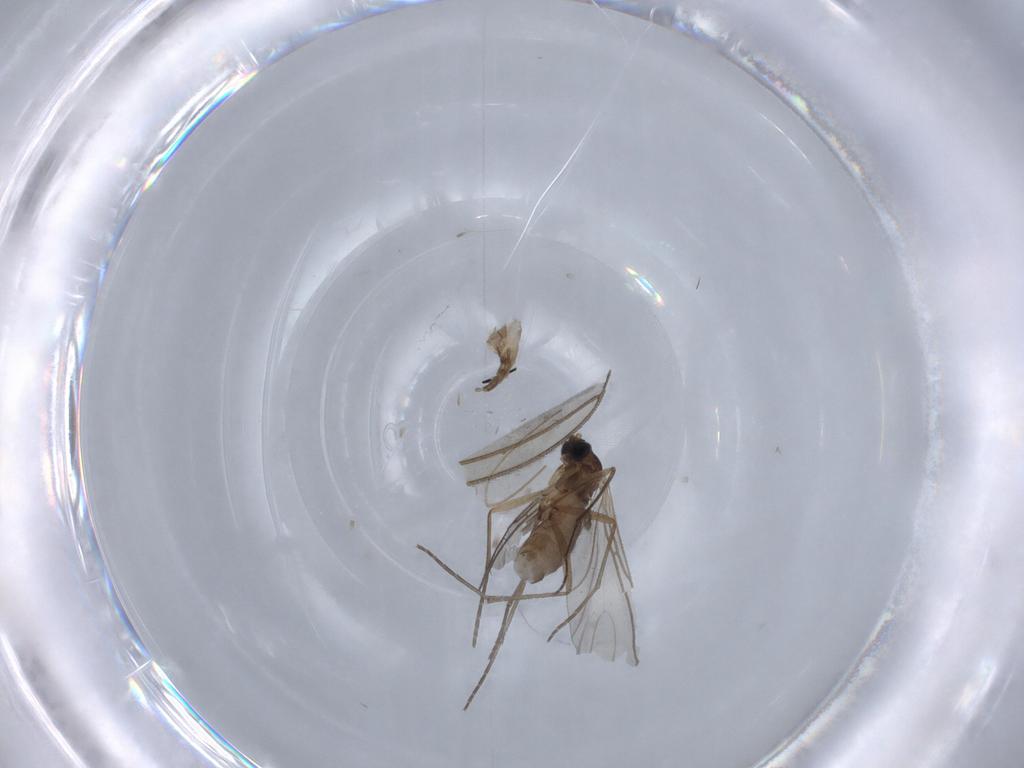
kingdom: Animalia
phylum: Arthropoda
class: Insecta
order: Diptera
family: Sciaridae
